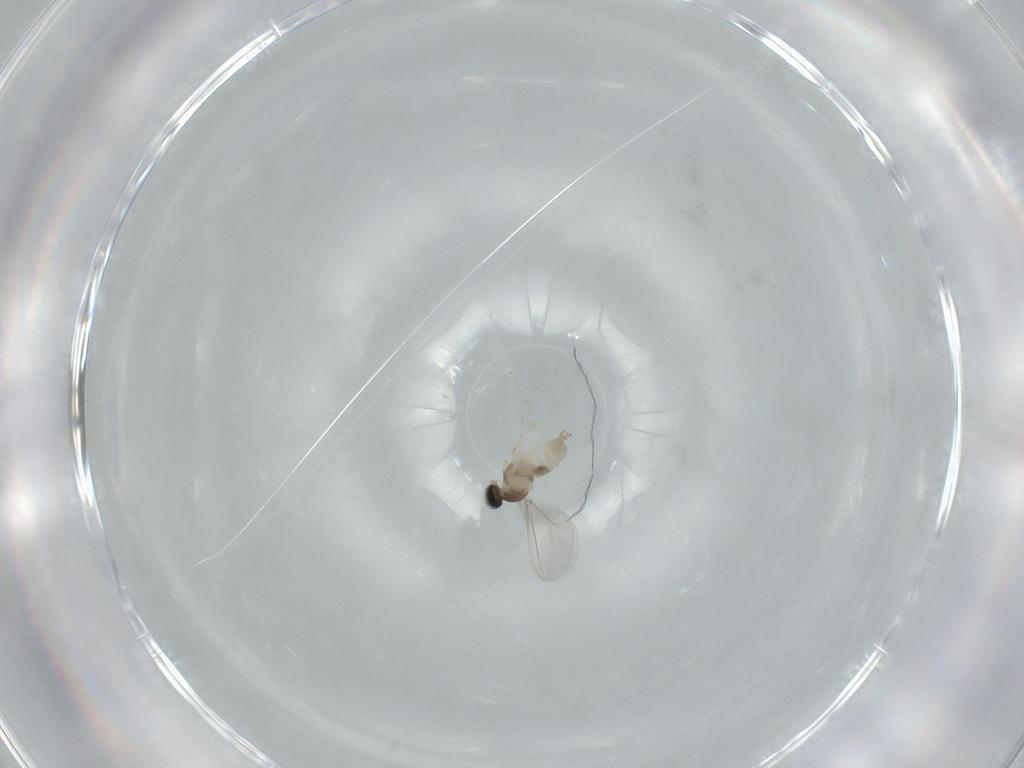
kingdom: Animalia
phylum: Arthropoda
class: Insecta
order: Diptera
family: Cecidomyiidae
